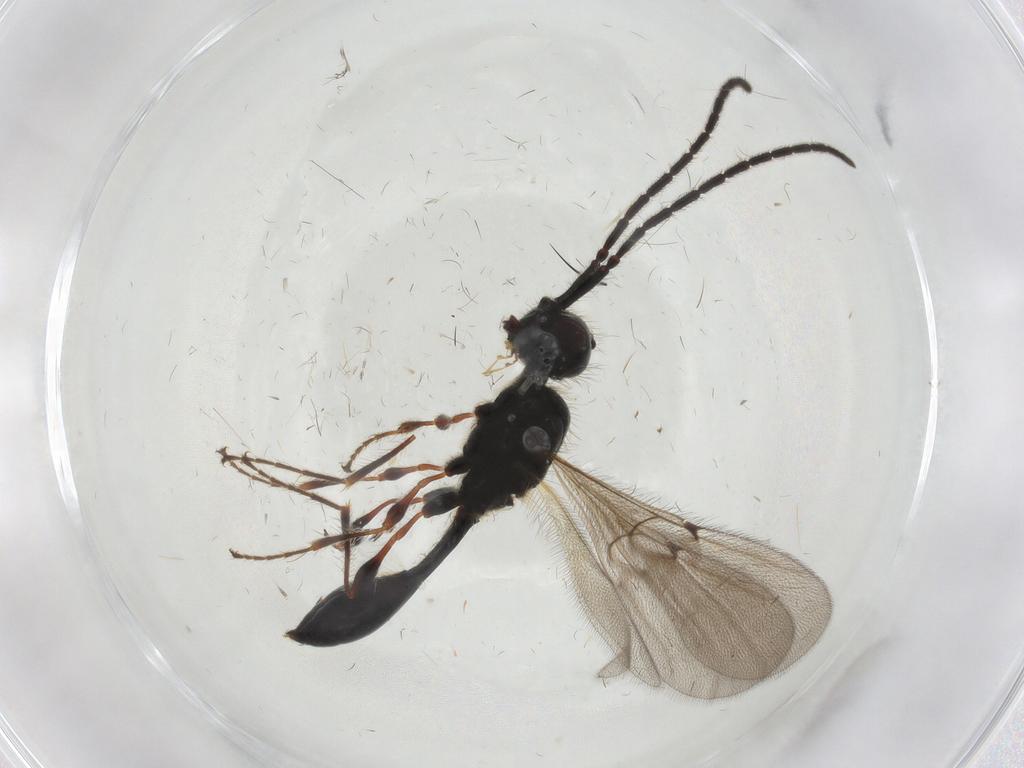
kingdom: Animalia
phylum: Arthropoda
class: Insecta
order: Hymenoptera
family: Diapriidae
